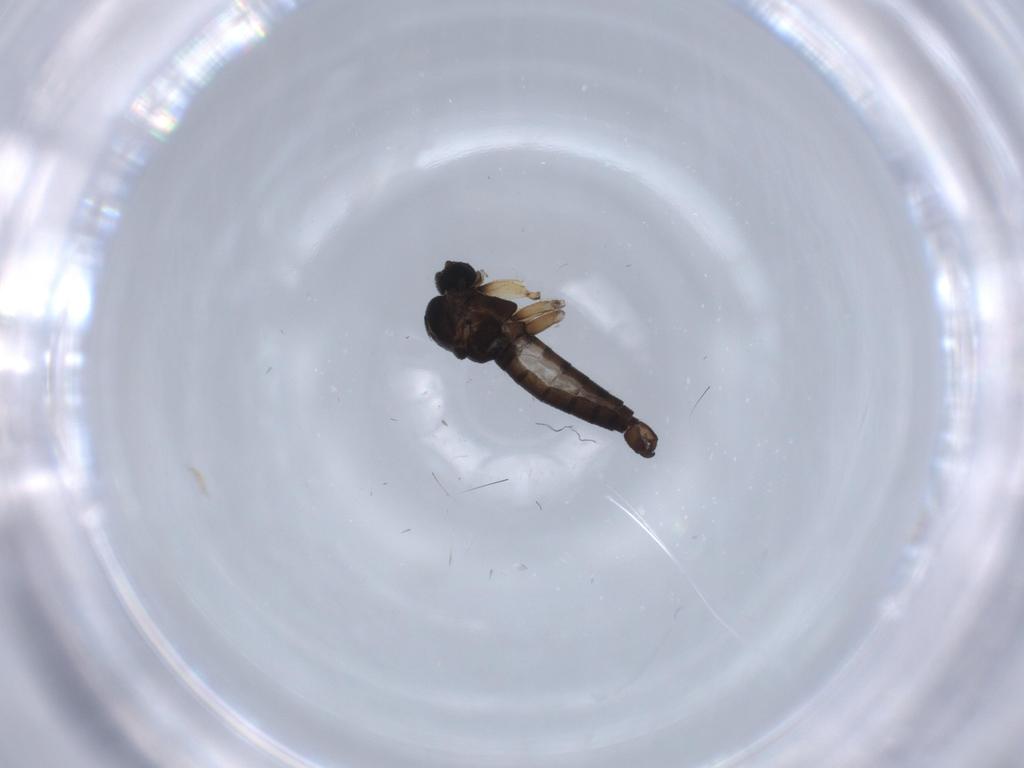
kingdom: Animalia
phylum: Arthropoda
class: Insecta
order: Diptera
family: Sciaridae
